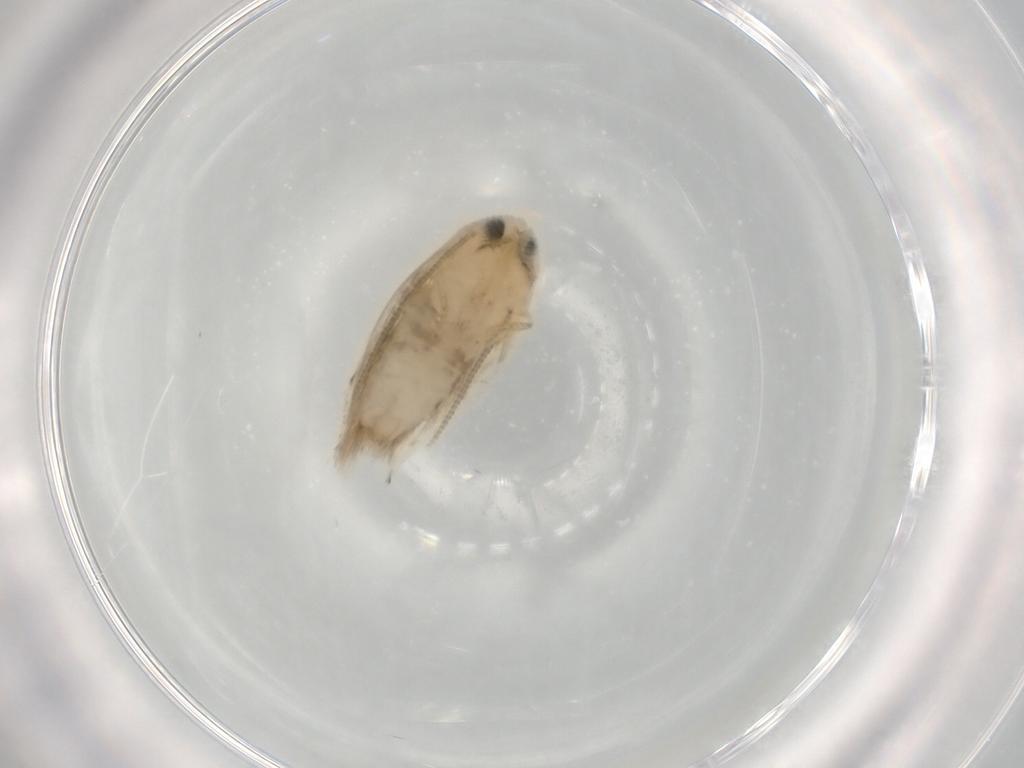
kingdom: Animalia
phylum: Arthropoda
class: Insecta
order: Lepidoptera
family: Opostegidae
